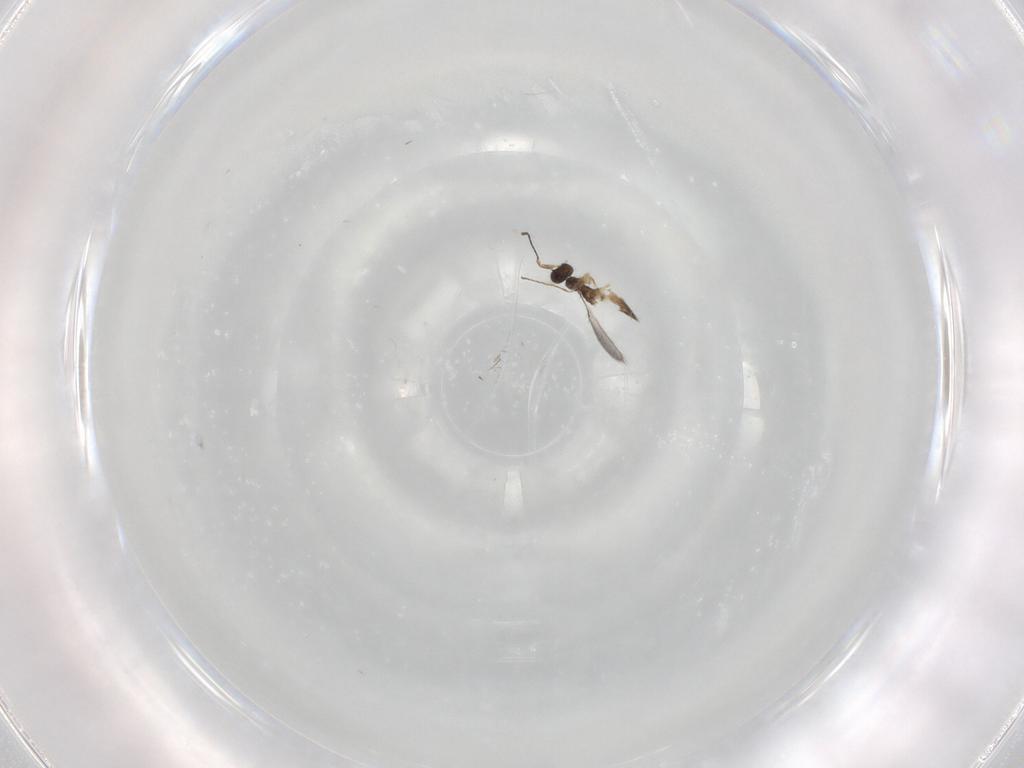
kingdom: Animalia
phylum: Arthropoda
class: Insecta
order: Hymenoptera
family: Mymaridae
